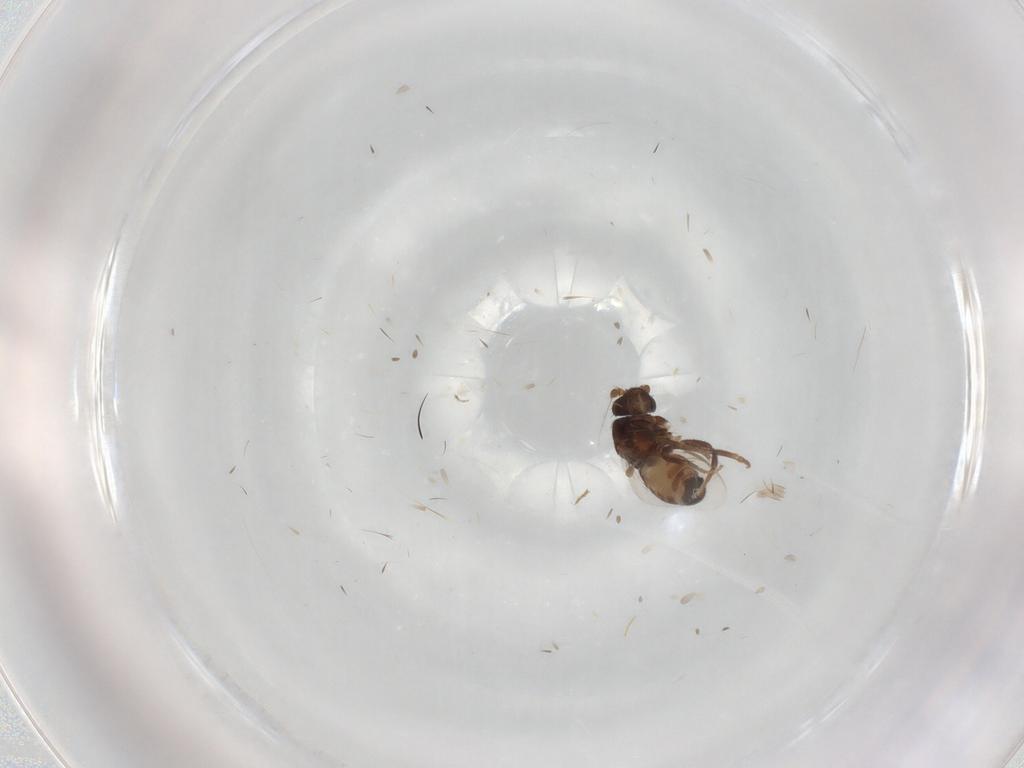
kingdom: Animalia
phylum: Arthropoda
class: Insecta
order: Diptera
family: Sphaeroceridae
